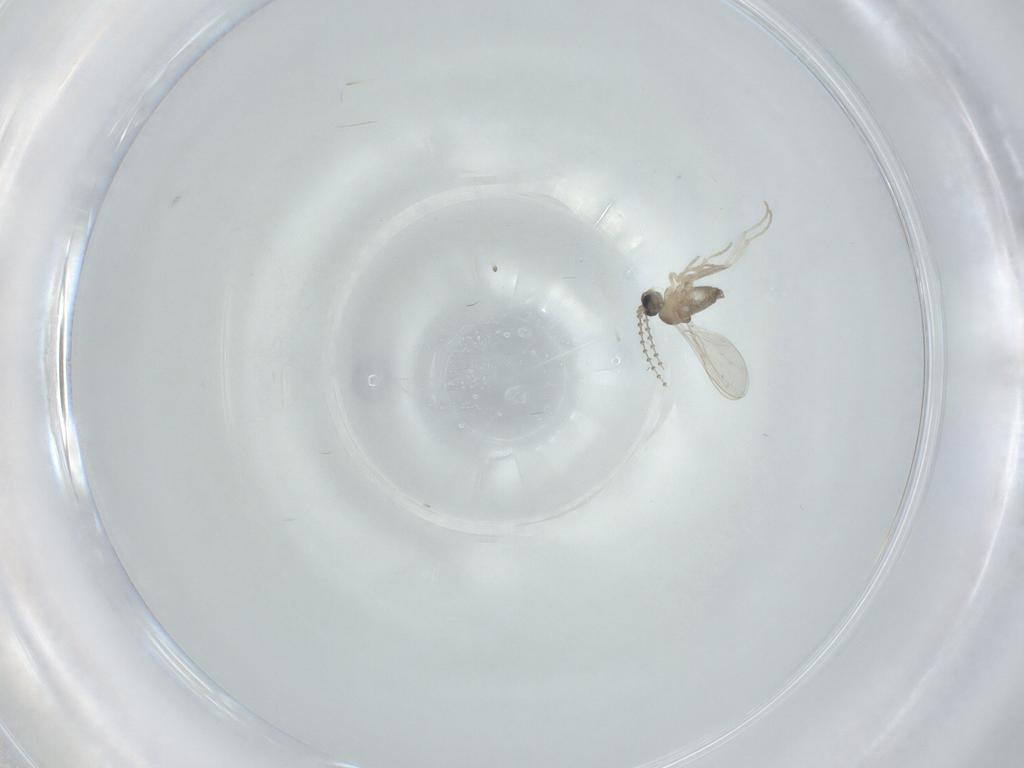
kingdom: Animalia
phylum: Arthropoda
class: Insecta
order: Diptera
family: Cecidomyiidae
